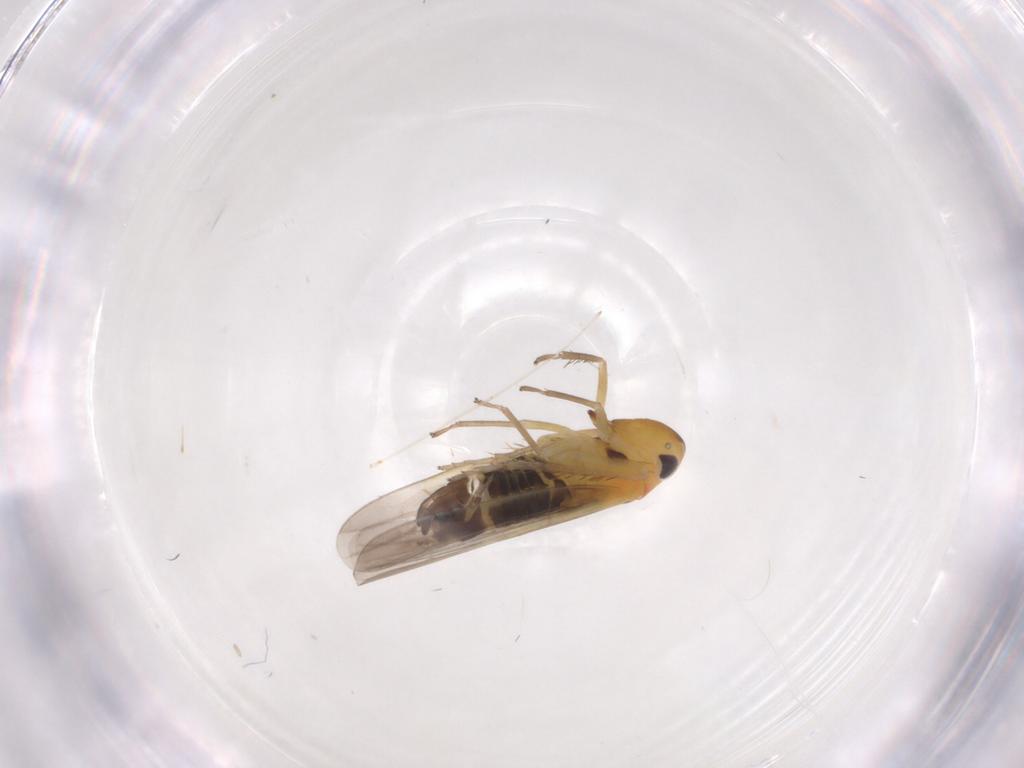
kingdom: Animalia
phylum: Arthropoda
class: Insecta
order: Hemiptera
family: Cicadellidae
